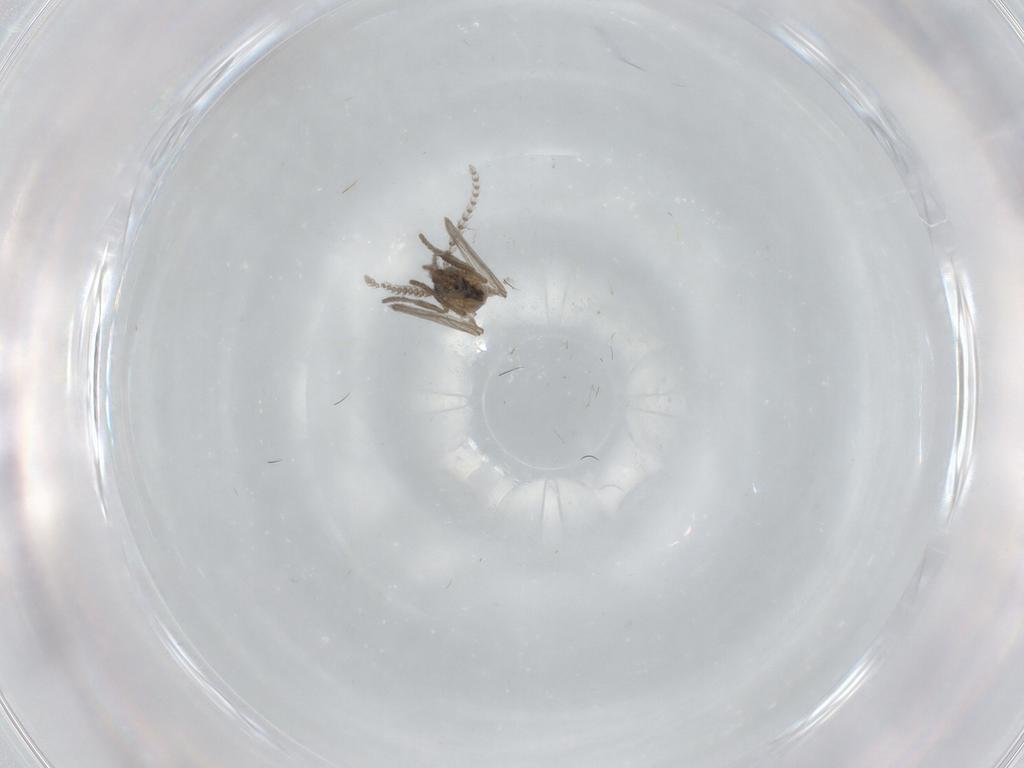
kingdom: Animalia
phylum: Arthropoda
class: Insecta
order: Diptera
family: Psychodidae
